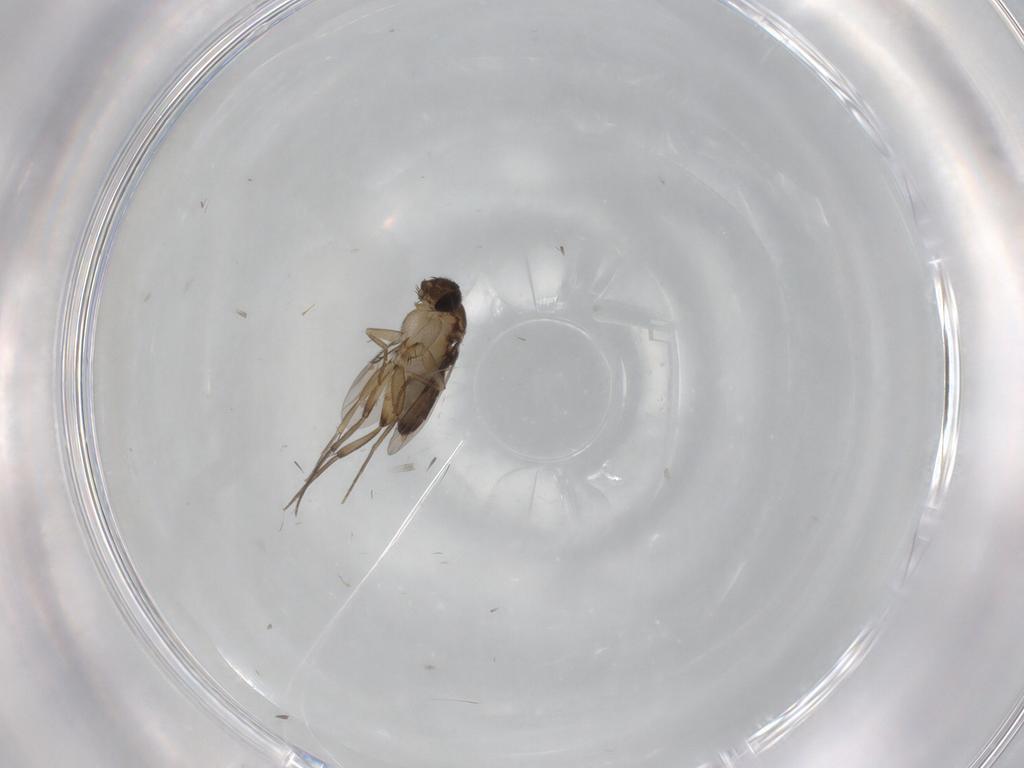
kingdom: Animalia
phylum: Arthropoda
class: Insecta
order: Diptera
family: Phoridae
